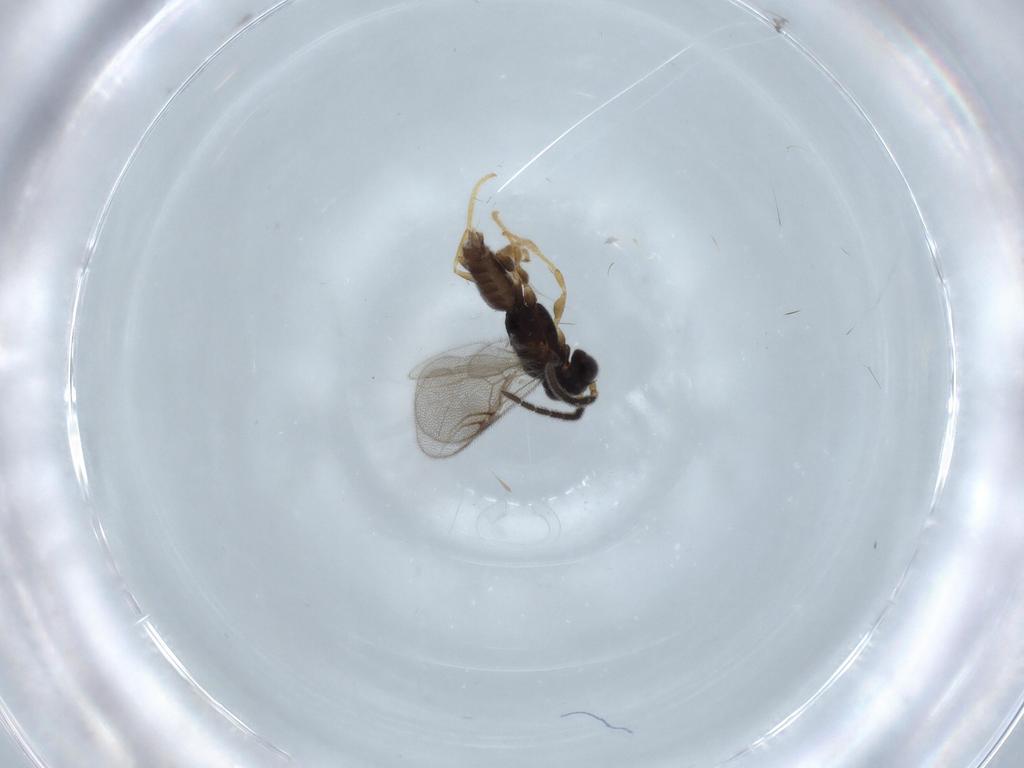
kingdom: Animalia
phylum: Arthropoda
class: Insecta
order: Hymenoptera
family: Dryinidae
